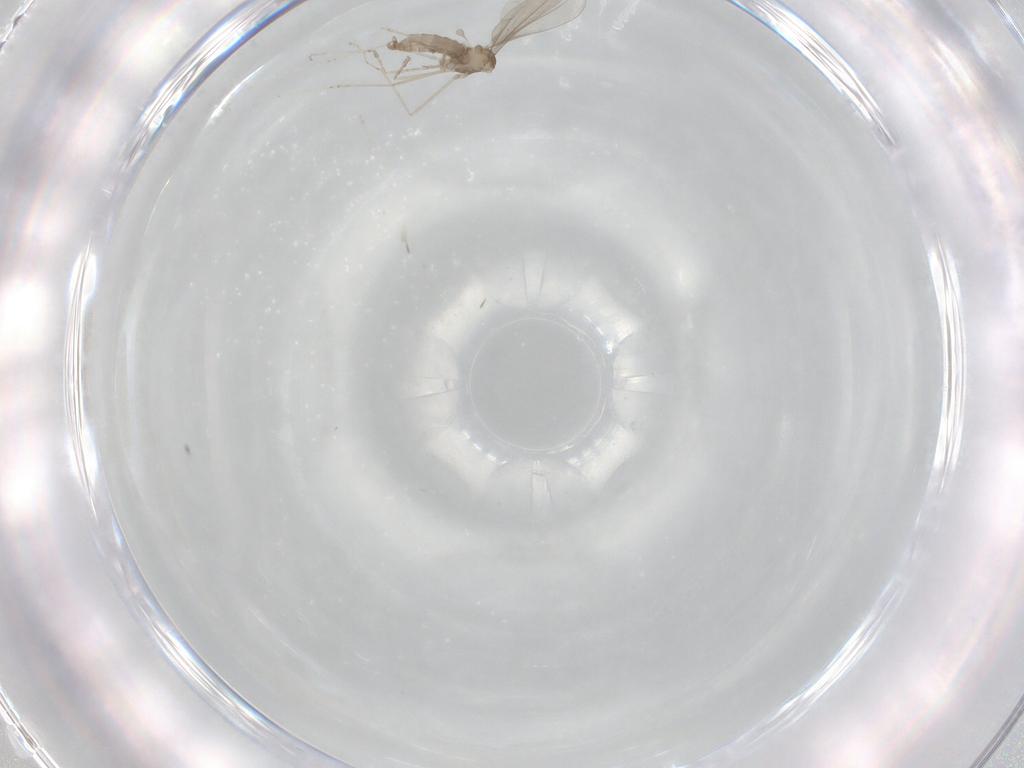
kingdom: Animalia
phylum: Arthropoda
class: Insecta
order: Diptera
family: Cecidomyiidae
